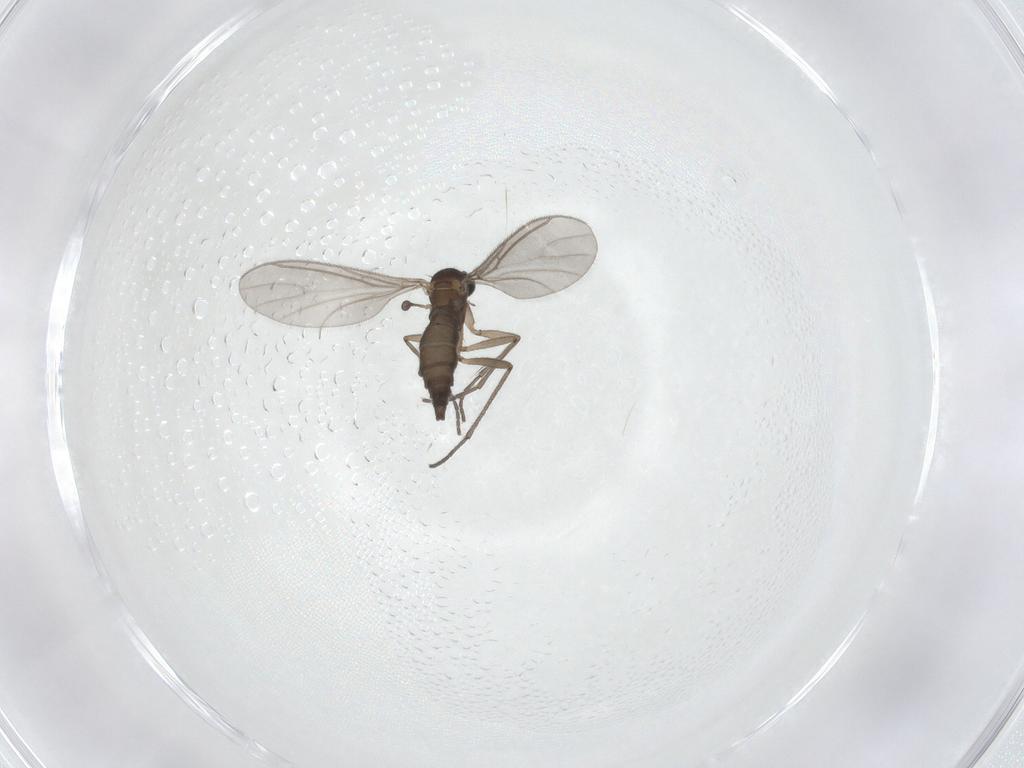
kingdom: Animalia
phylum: Arthropoda
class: Insecta
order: Diptera
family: Sciaridae
